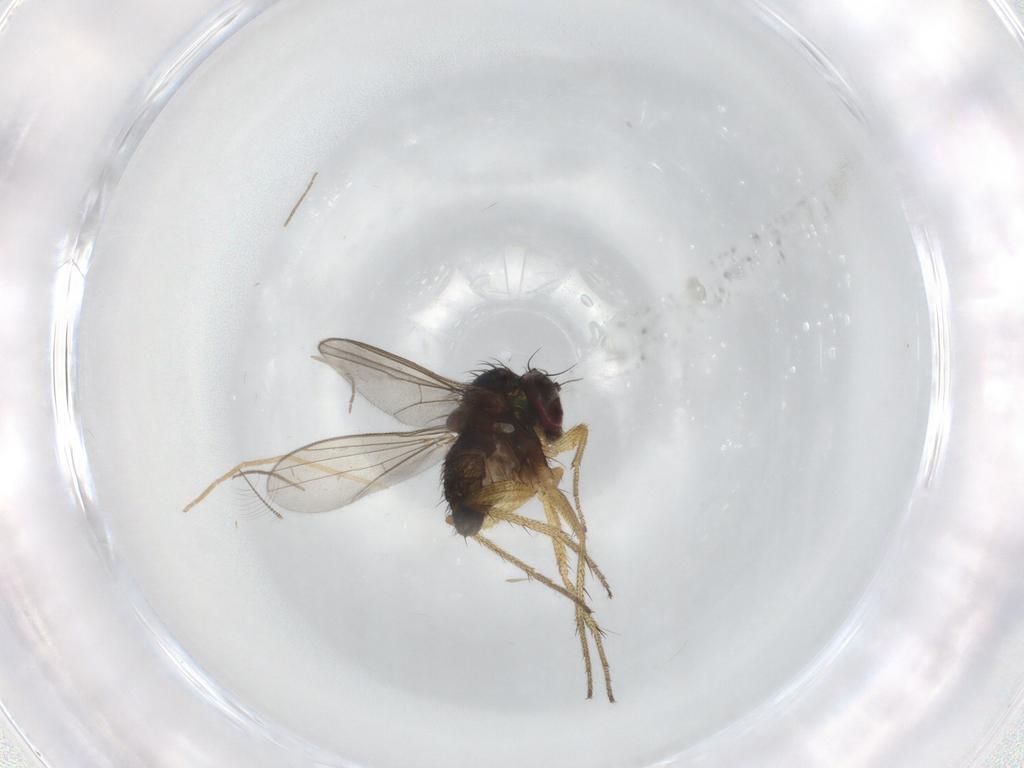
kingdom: Animalia
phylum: Arthropoda
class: Insecta
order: Diptera
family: Dolichopodidae
